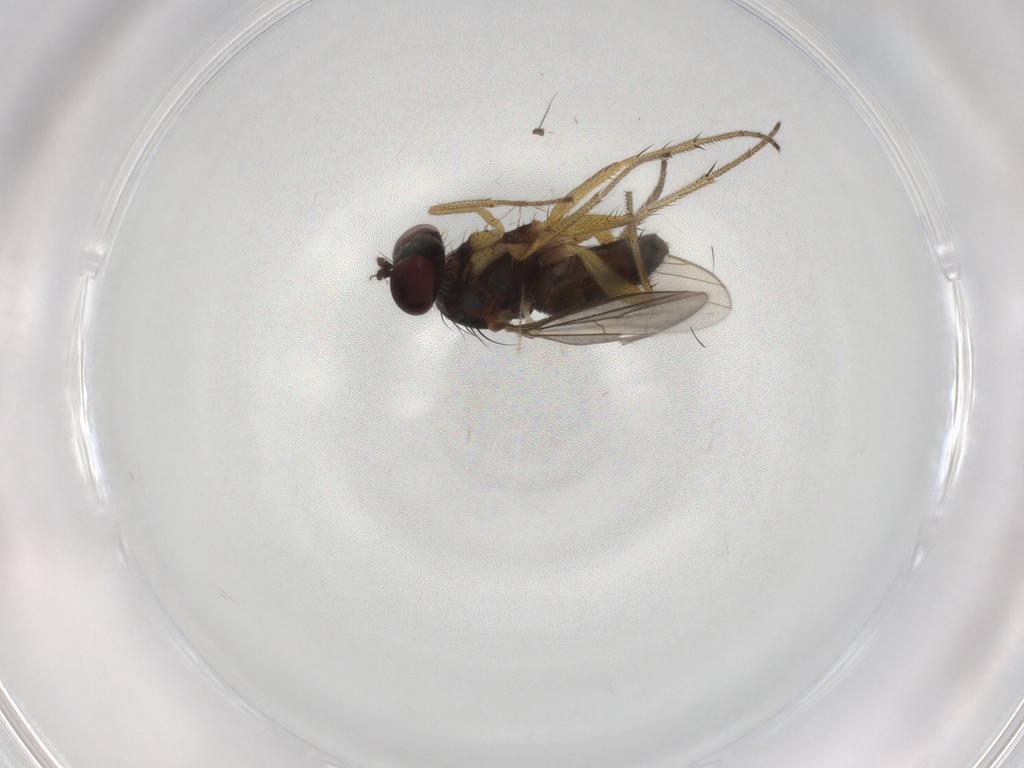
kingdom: Animalia
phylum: Arthropoda
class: Insecta
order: Diptera
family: Dolichopodidae
